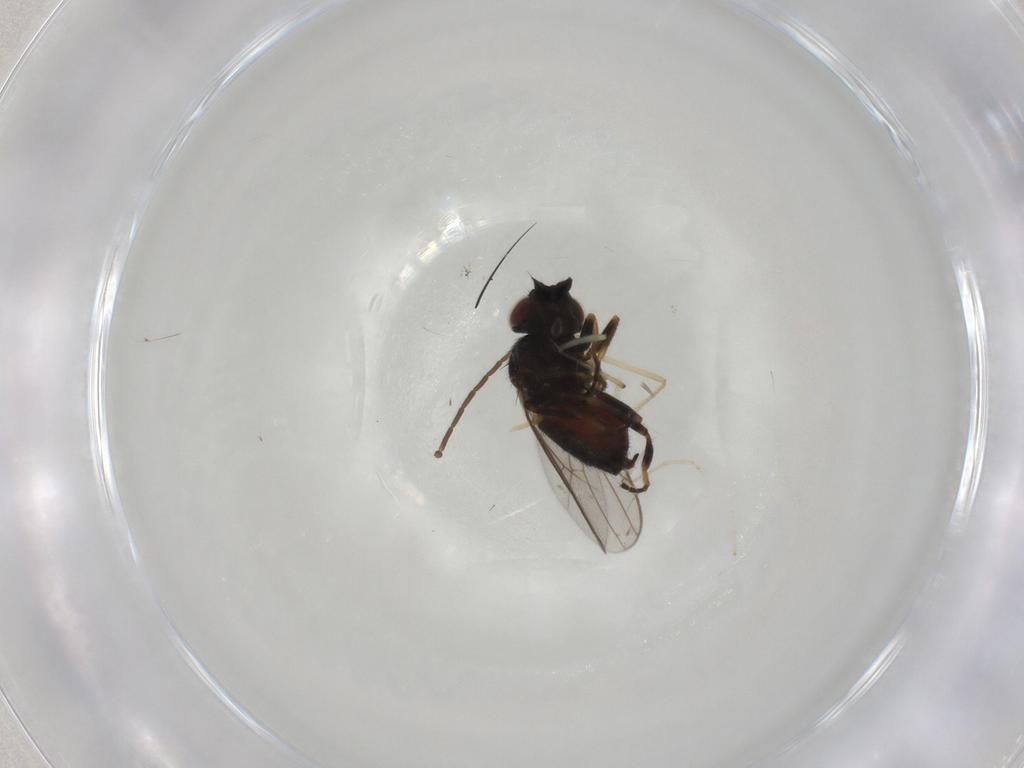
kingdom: Animalia
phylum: Arthropoda
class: Insecta
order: Diptera
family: Chloropidae
